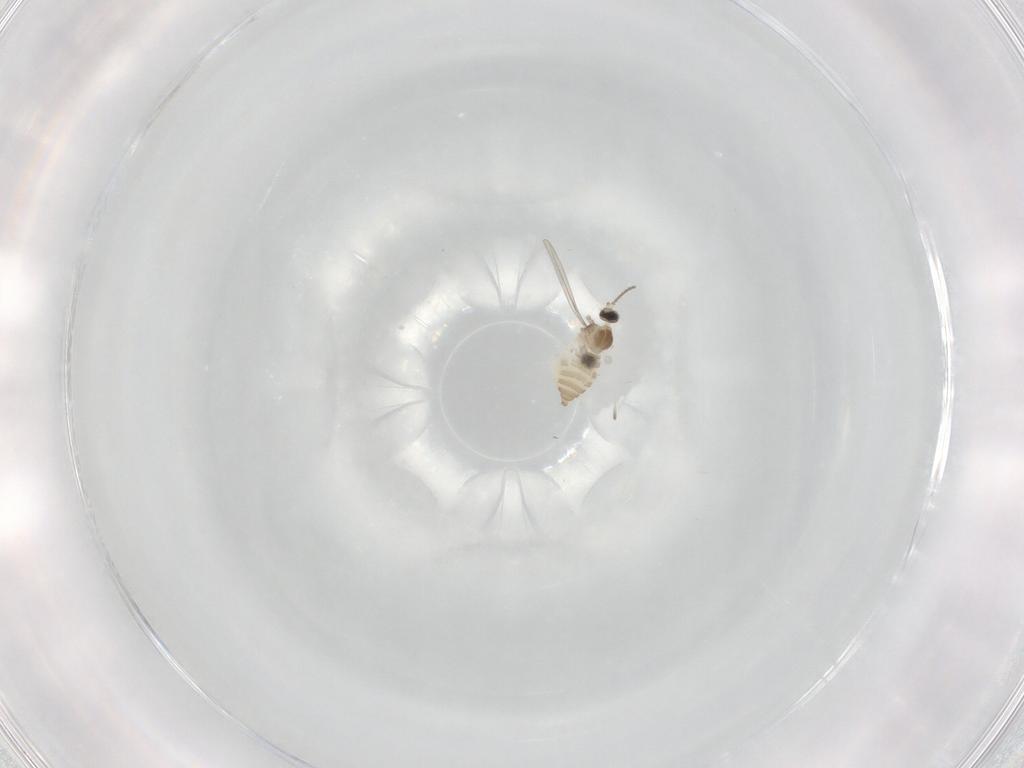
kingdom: Animalia
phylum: Arthropoda
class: Insecta
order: Diptera
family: Cecidomyiidae
